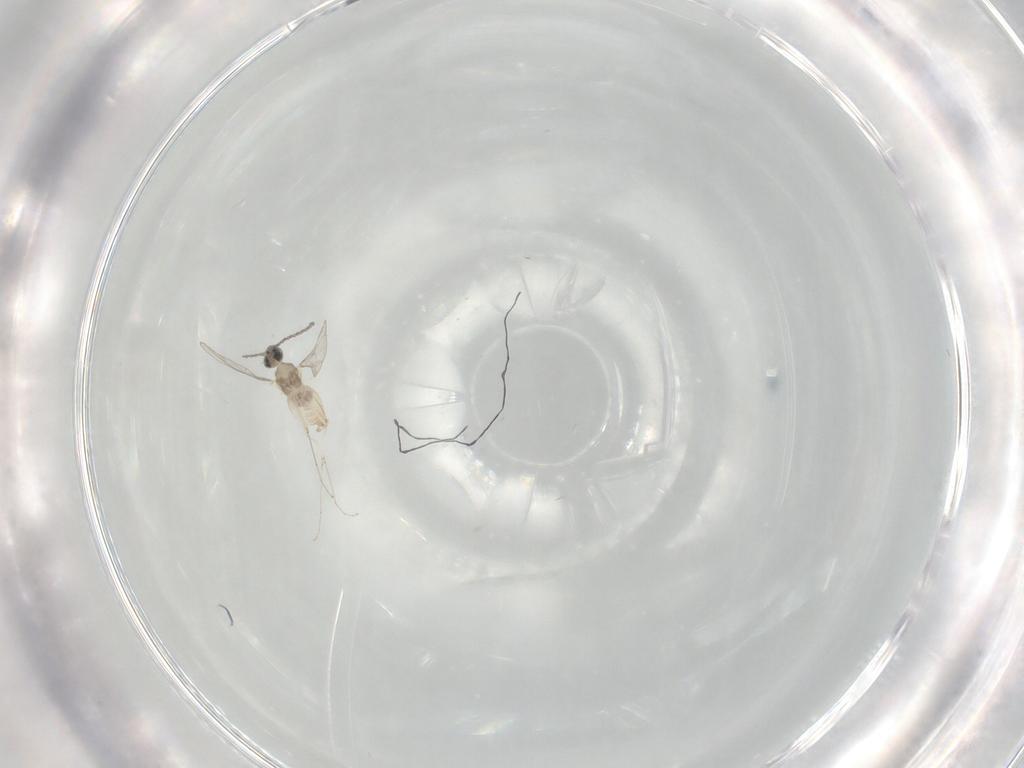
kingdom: Animalia
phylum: Arthropoda
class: Insecta
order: Diptera
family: Cecidomyiidae
